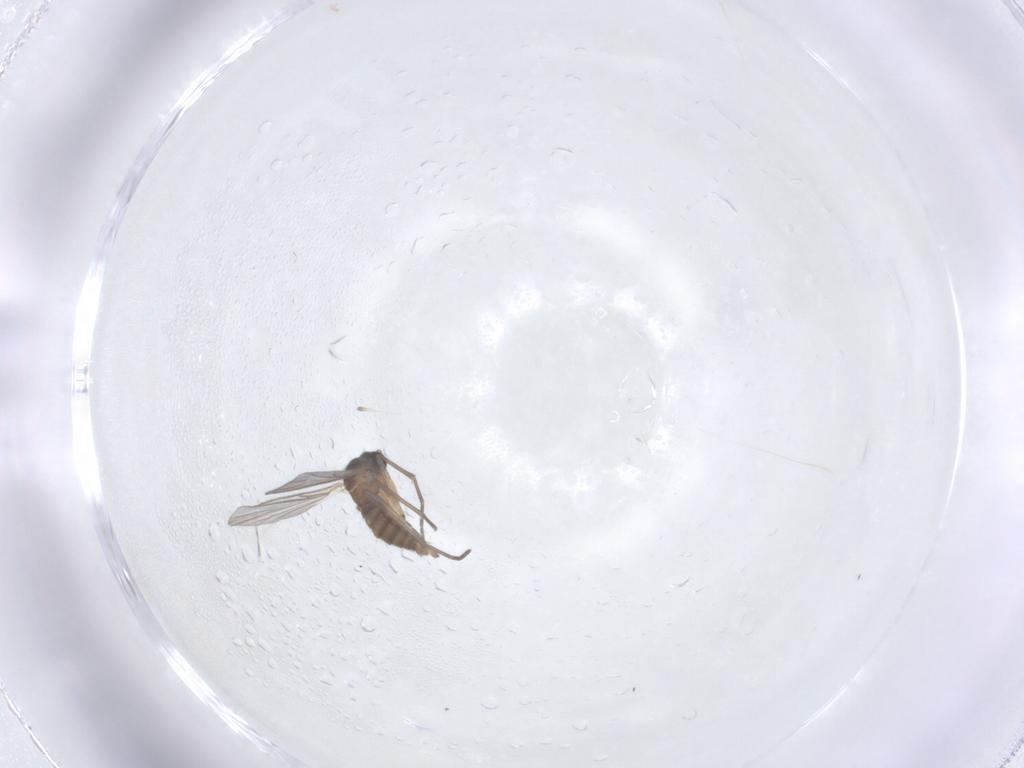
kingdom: Animalia
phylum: Arthropoda
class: Insecta
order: Diptera
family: Sciaridae
